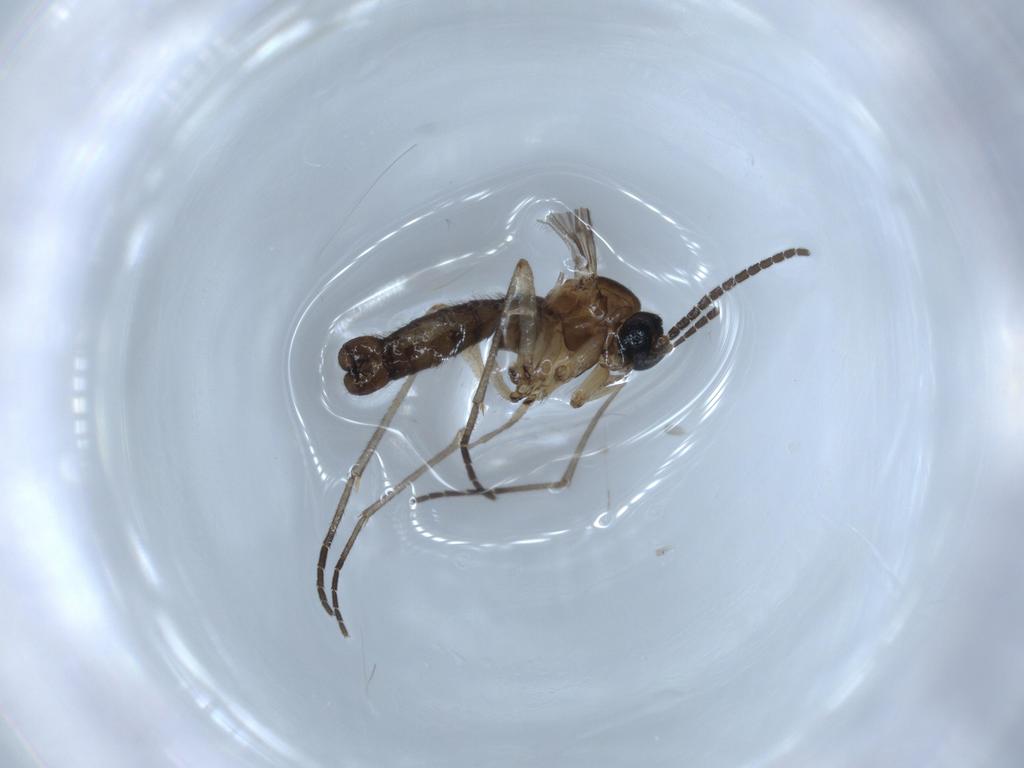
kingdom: Animalia
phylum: Arthropoda
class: Insecta
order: Diptera
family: Sciaridae
